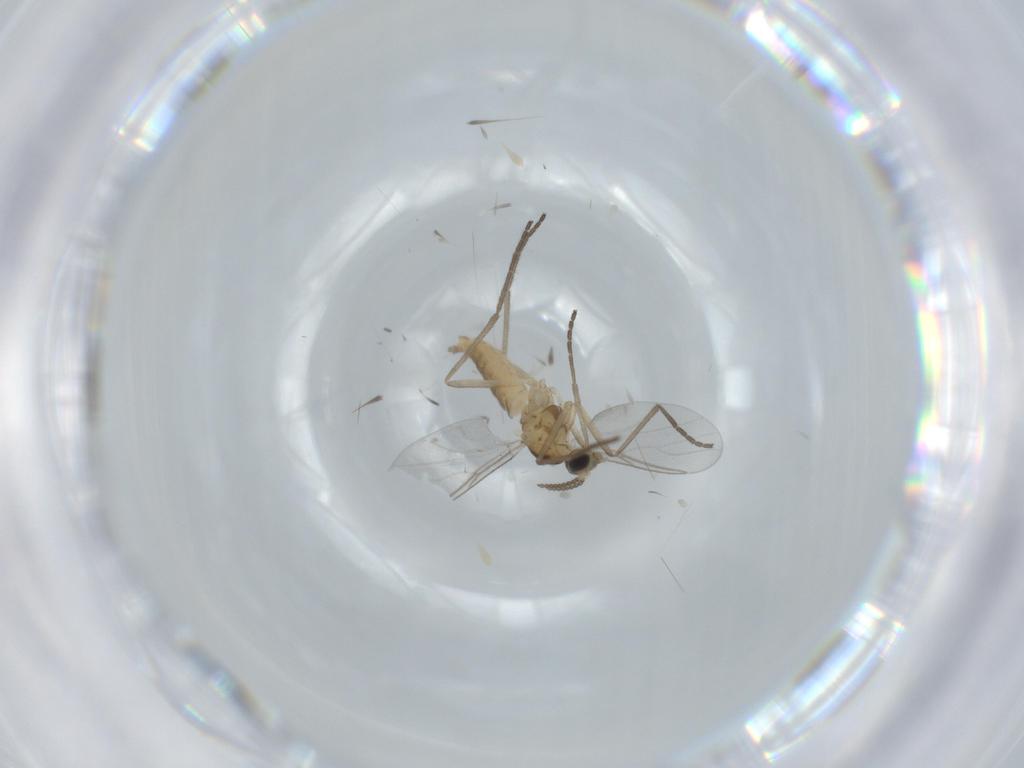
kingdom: Animalia
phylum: Arthropoda
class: Insecta
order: Diptera
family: Cecidomyiidae
